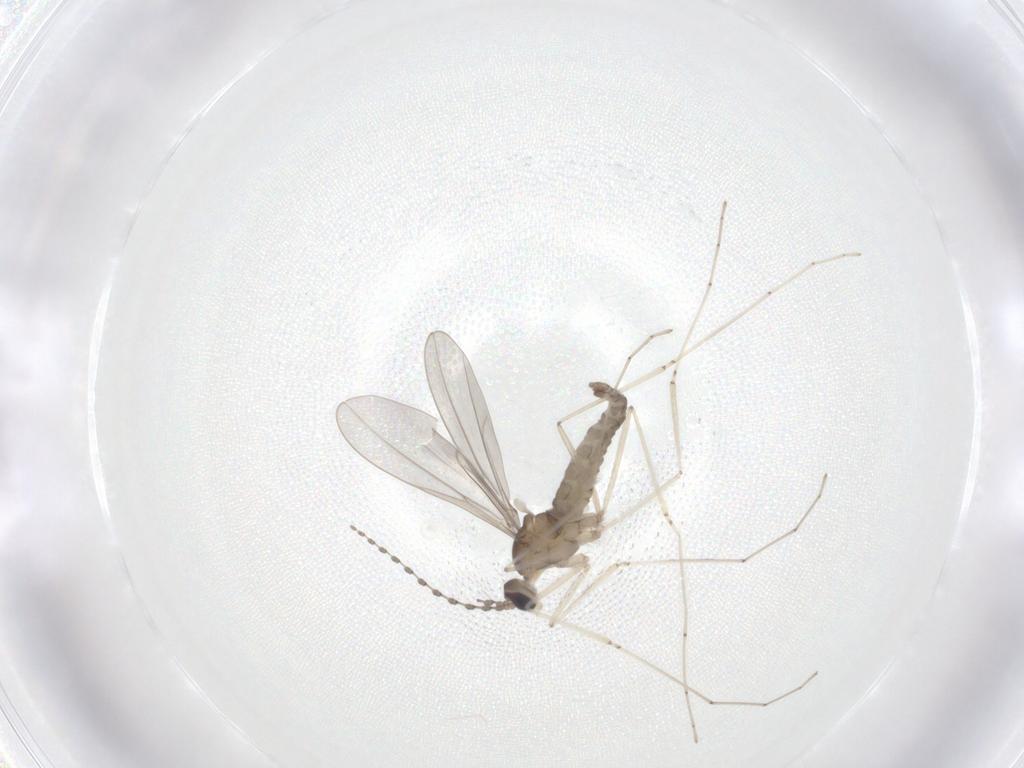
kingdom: Animalia
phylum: Arthropoda
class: Insecta
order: Diptera
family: Cecidomyiidae
